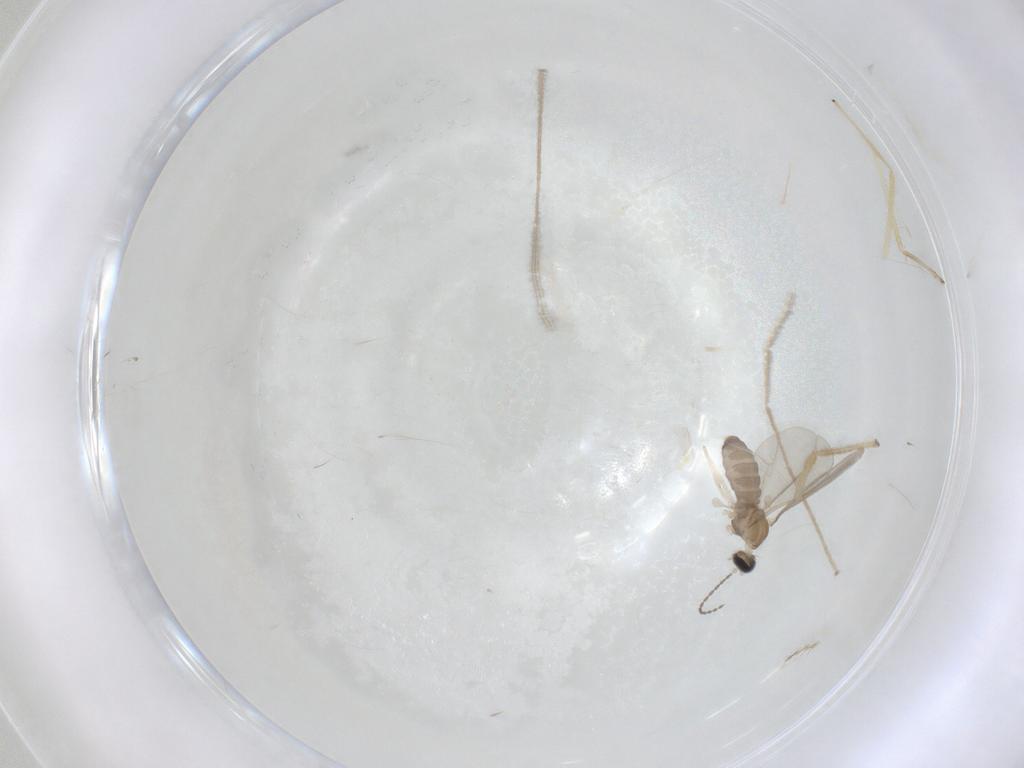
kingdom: Animalia
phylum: Arthropoda
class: Insecta
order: Diptera
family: Cecidomyiidae
